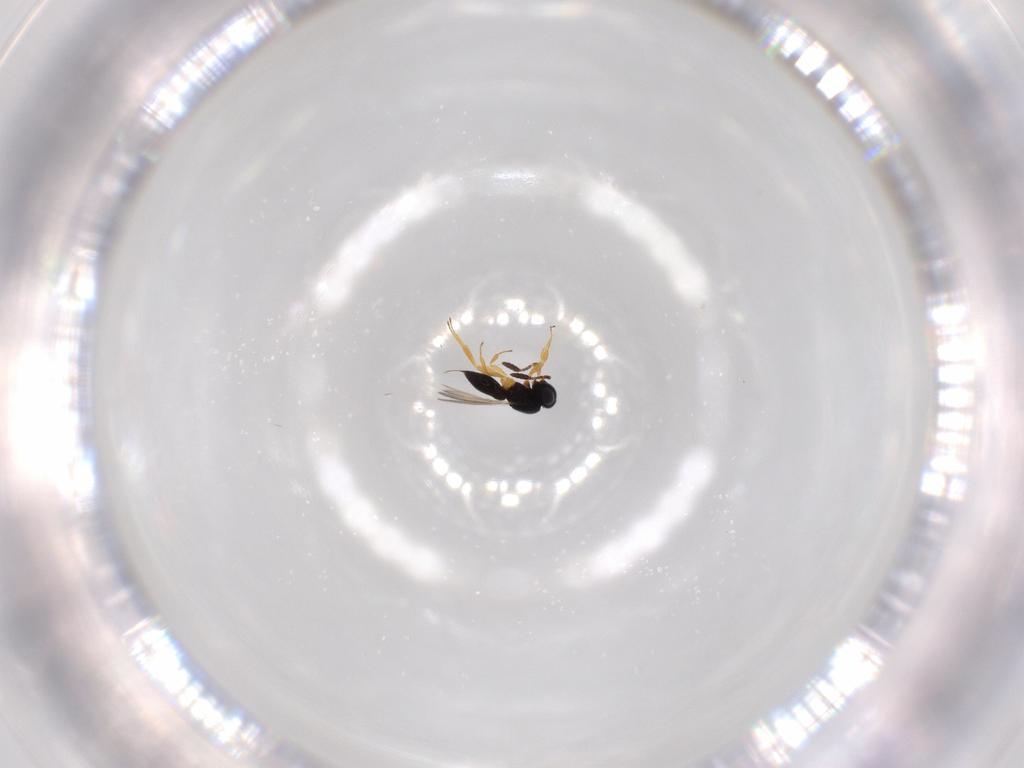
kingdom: Animalia
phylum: Arthropoda
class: Insecta
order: Hymenoptera
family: Scelionidae
